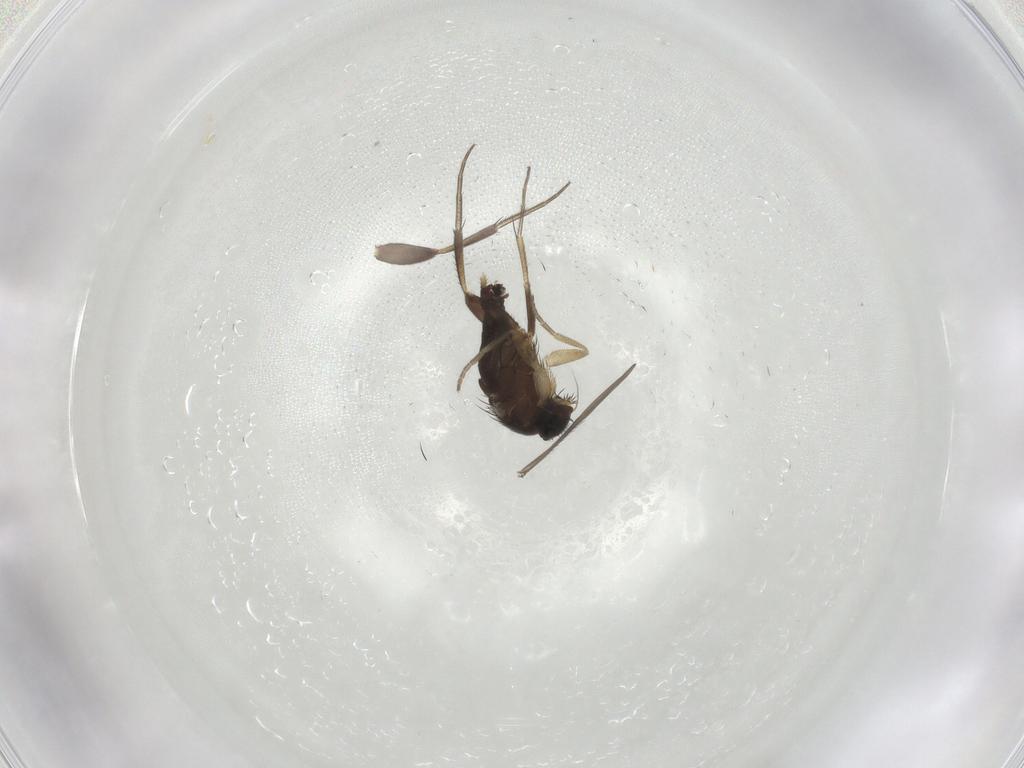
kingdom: Animalia
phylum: Arthropoda
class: Insecta
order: Diptera
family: Phoridae
